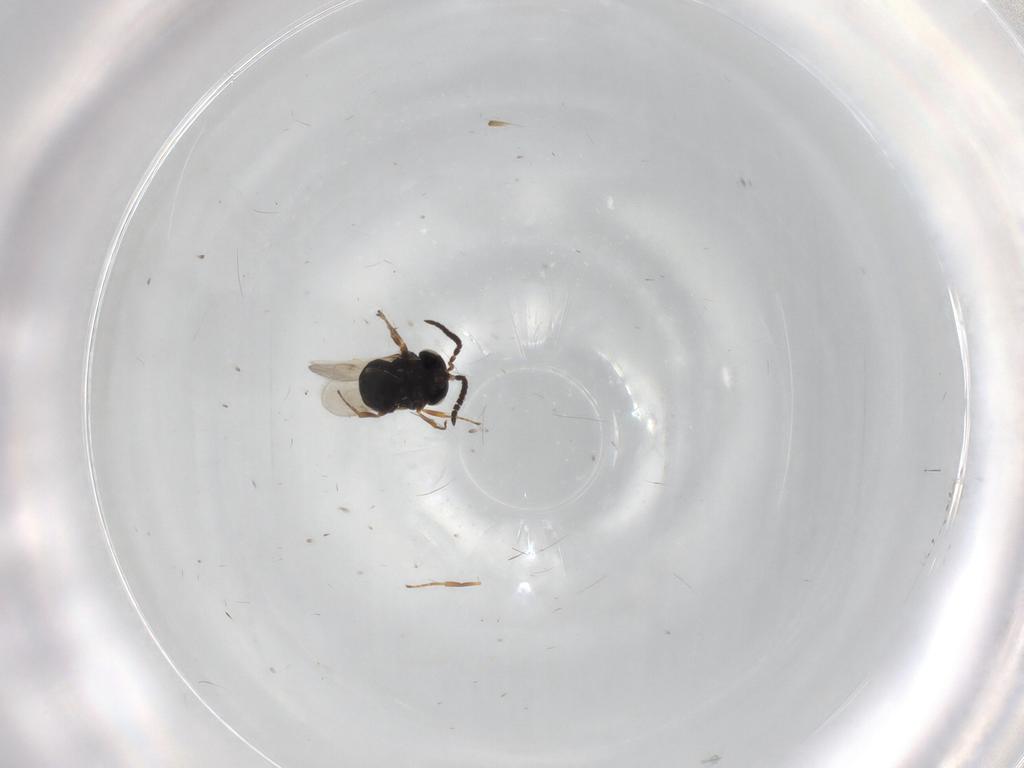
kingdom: Animalia
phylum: Arthropoda
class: Insecta
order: Hymenoptera
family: Scelionidae
